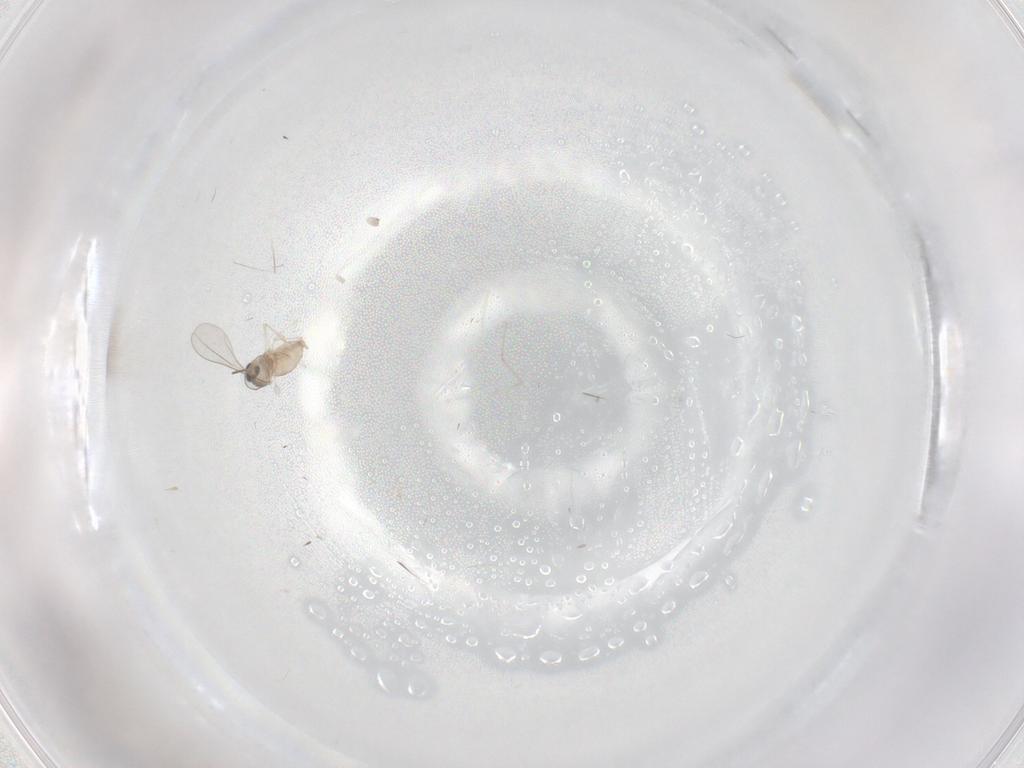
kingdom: Animalia
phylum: Arthropoda
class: Insecta
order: Diptera
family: Cecidomyiidae
